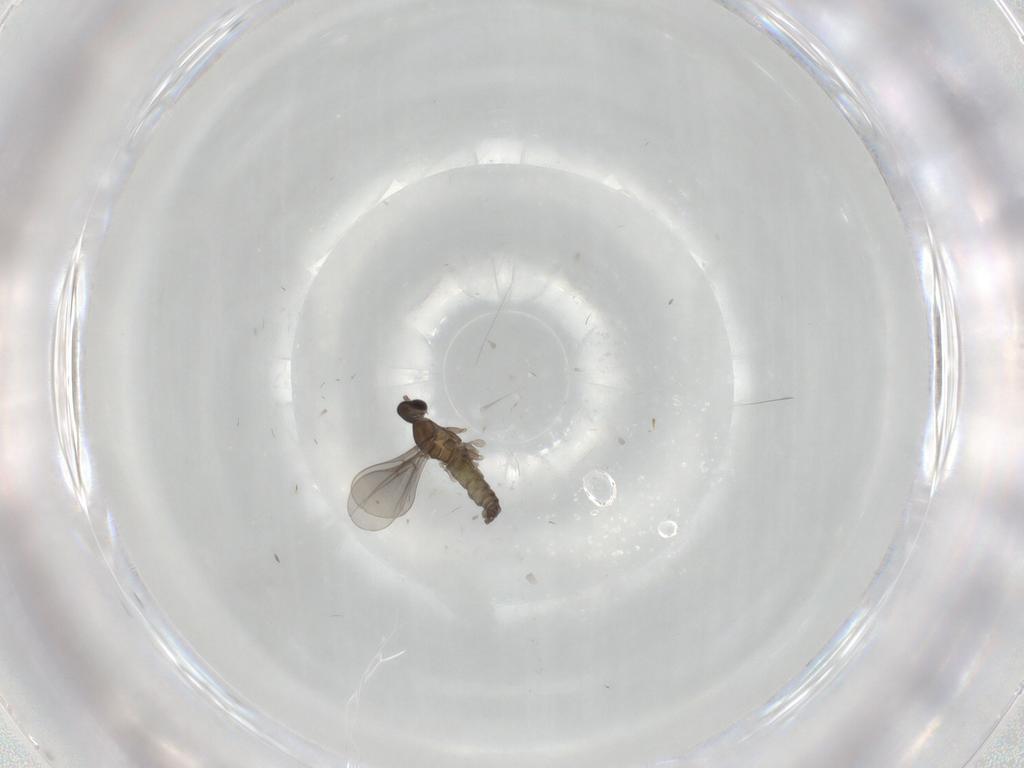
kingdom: Animalia
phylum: Arthropoda
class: Insecta
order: Diptera
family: Cecidomyiidae
